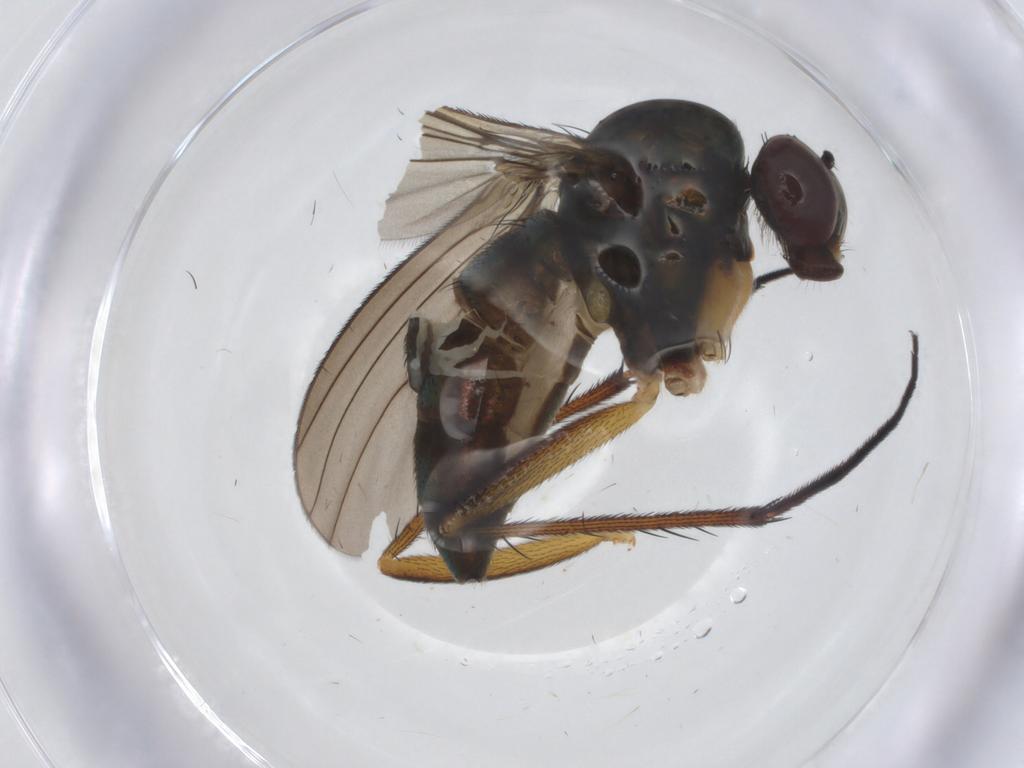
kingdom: Animalia
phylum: Arthropoda
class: Insecta
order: Diptera
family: Dolichopodidae
